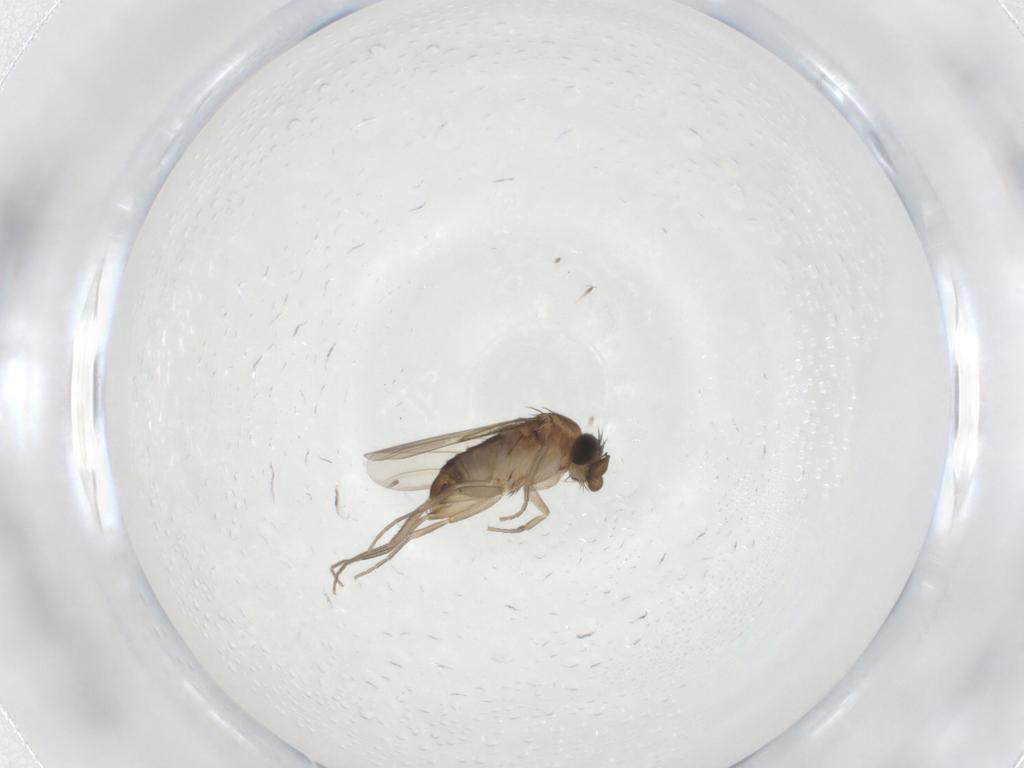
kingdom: Animalia
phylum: Arthropoda
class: Insecta
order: Diptera
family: Phoridae
